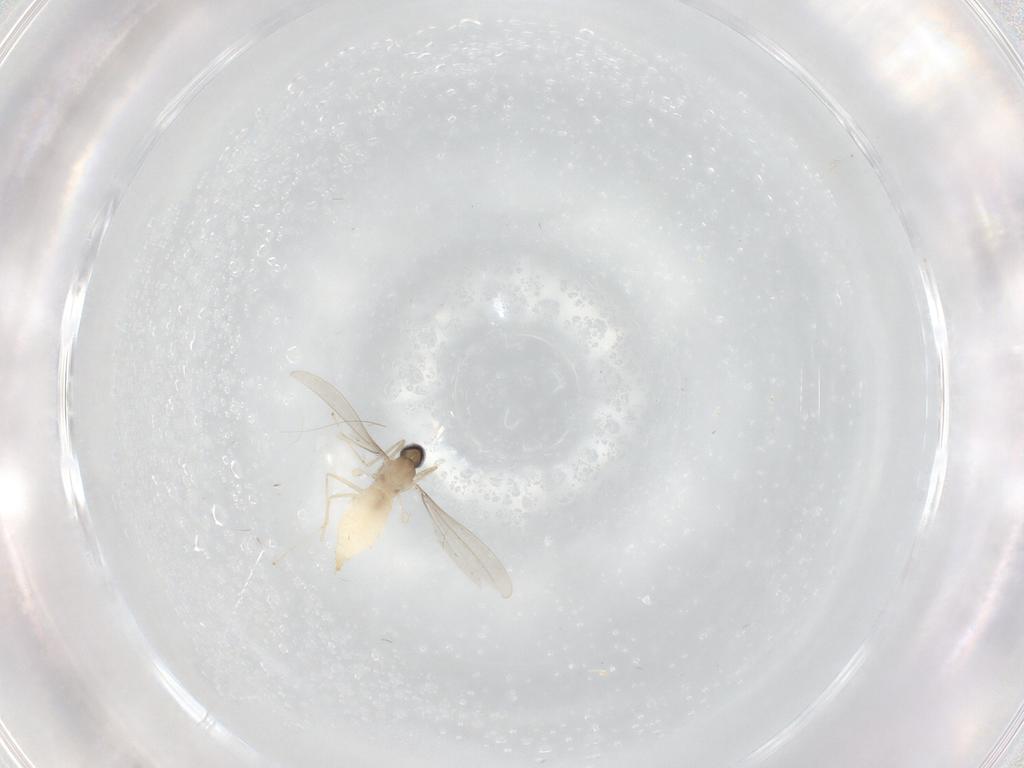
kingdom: Animalia
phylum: Arthropoda
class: Insecta
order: Diptera
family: Cecidomyiidae
